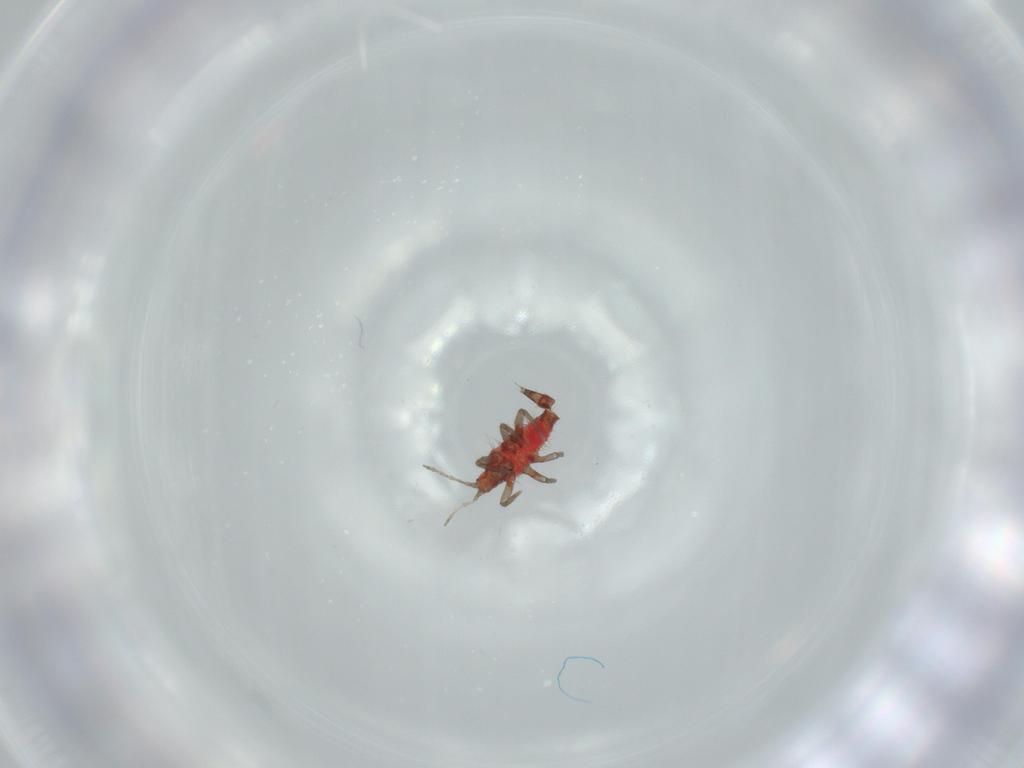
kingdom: Animalia
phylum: Arthropoda
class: Insecta
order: Thysanoptera
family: Phlaeothripidae
